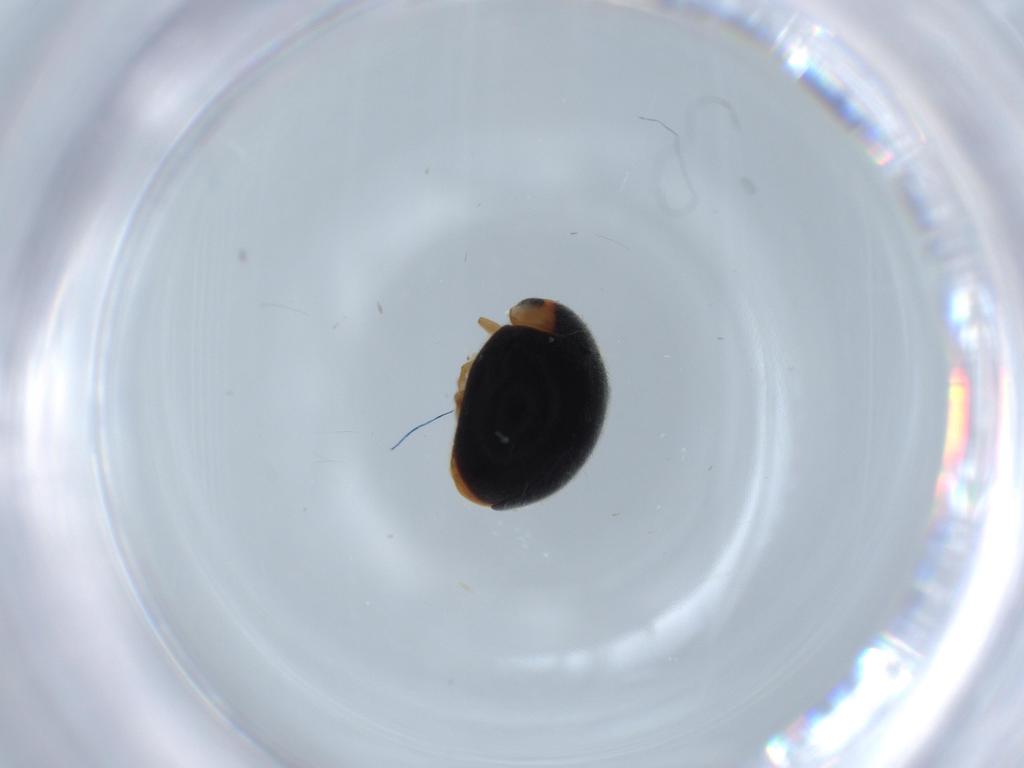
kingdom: Animalia
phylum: Arthropoda
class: Insecta
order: Coleoptera
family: Coccinellidae
